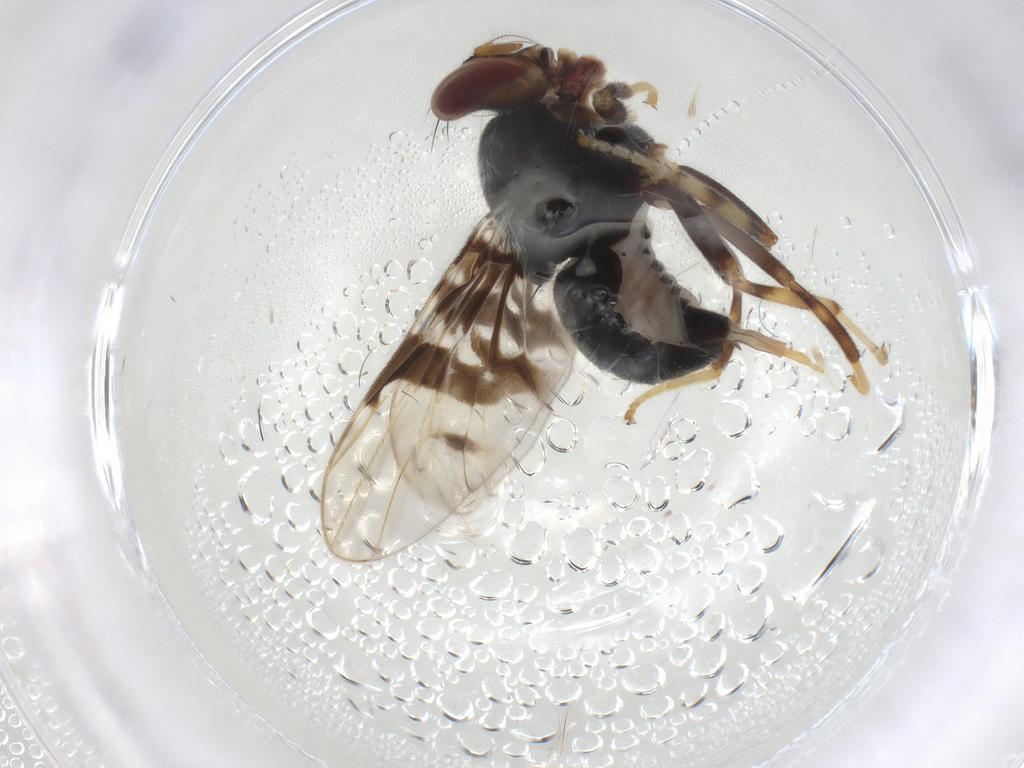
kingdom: Animalia
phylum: Arthropoda
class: Insecta
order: Diptera
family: Platystomatidae
